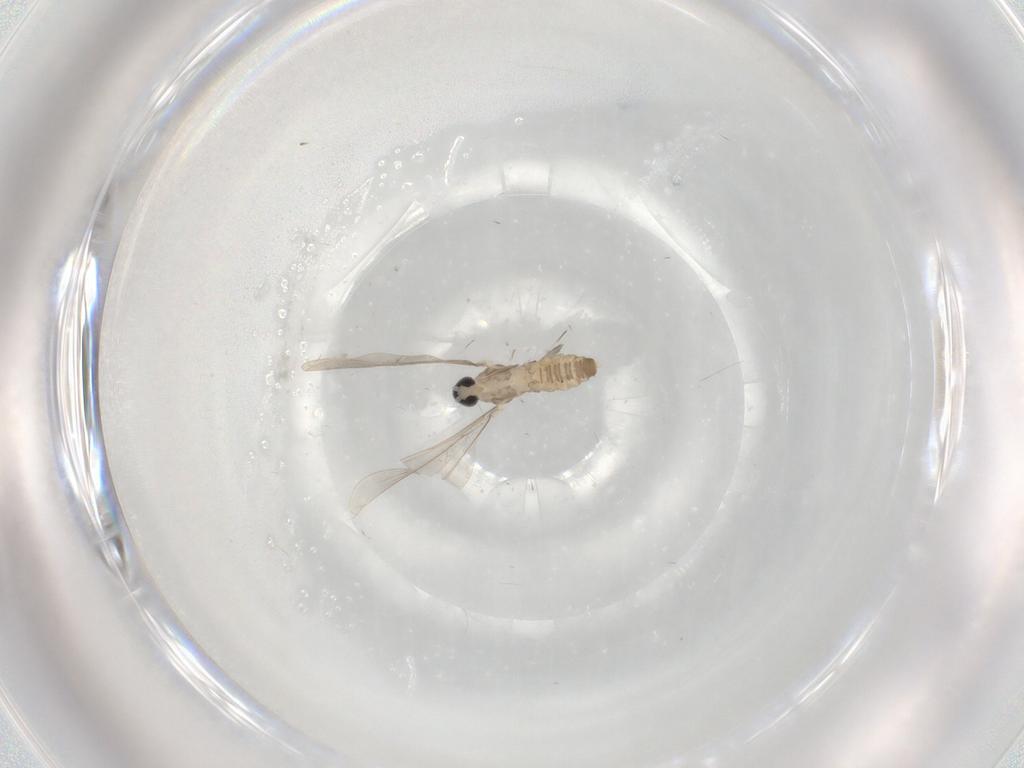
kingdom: Animalia
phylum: Arthropoda
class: Insecta
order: Diptera
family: Cecidomyiidae
